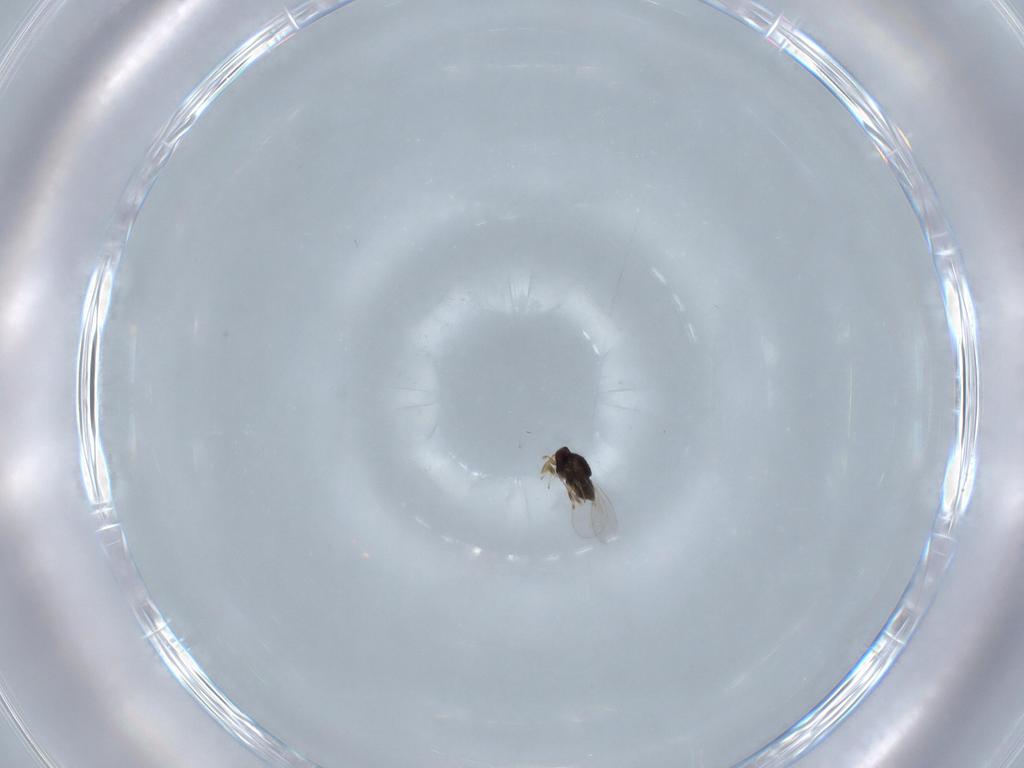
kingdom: Animalia
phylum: Arthropoda
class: Insecta
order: Hymenoptera
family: Encyrtidae
